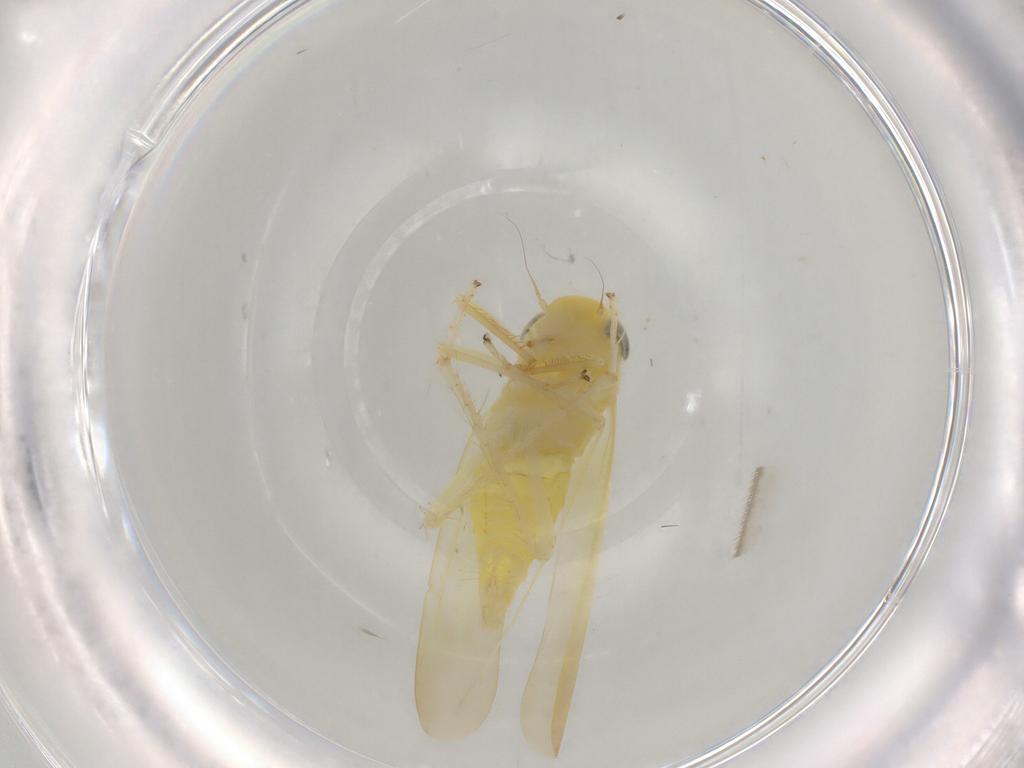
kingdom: Animalia
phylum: Arthropoda
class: Insecta
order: Hemiptera
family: Cicadellidae
